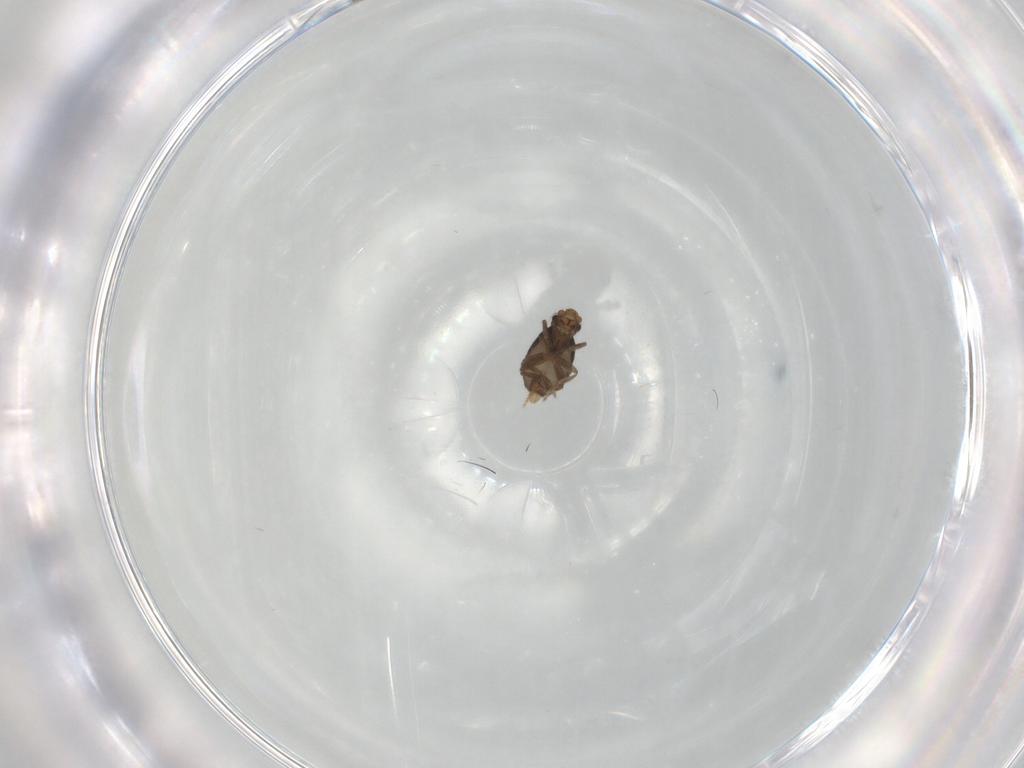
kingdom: Animalia
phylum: Arthropoda
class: Insecta
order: Diptera
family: Phoridae
